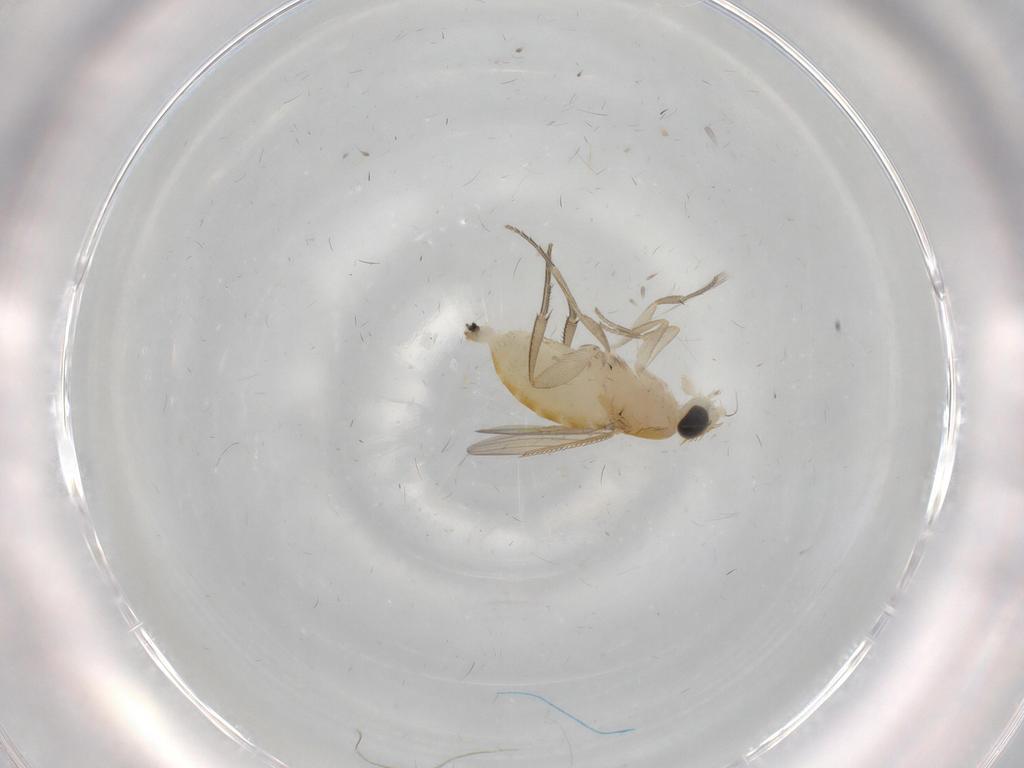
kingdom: Animalia
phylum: Arthropoda
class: Insecta
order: Diptera
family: Phoridae
